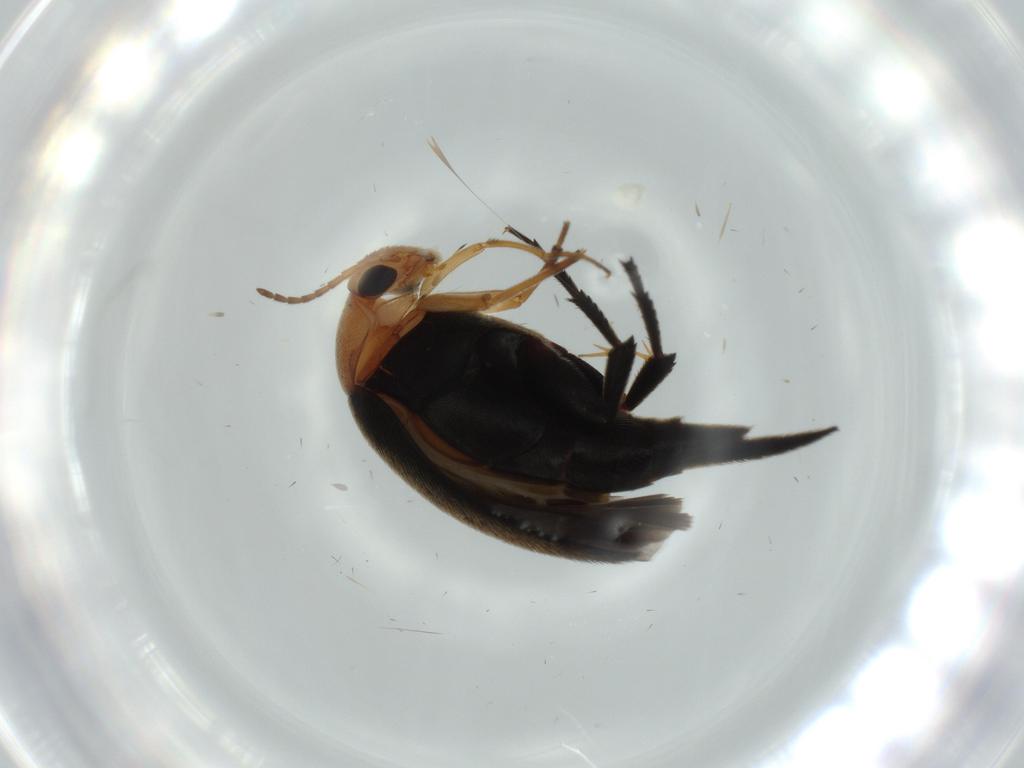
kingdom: Animalia
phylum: Arthropoda
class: Insecta
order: Coleoptera
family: Mordellidae
